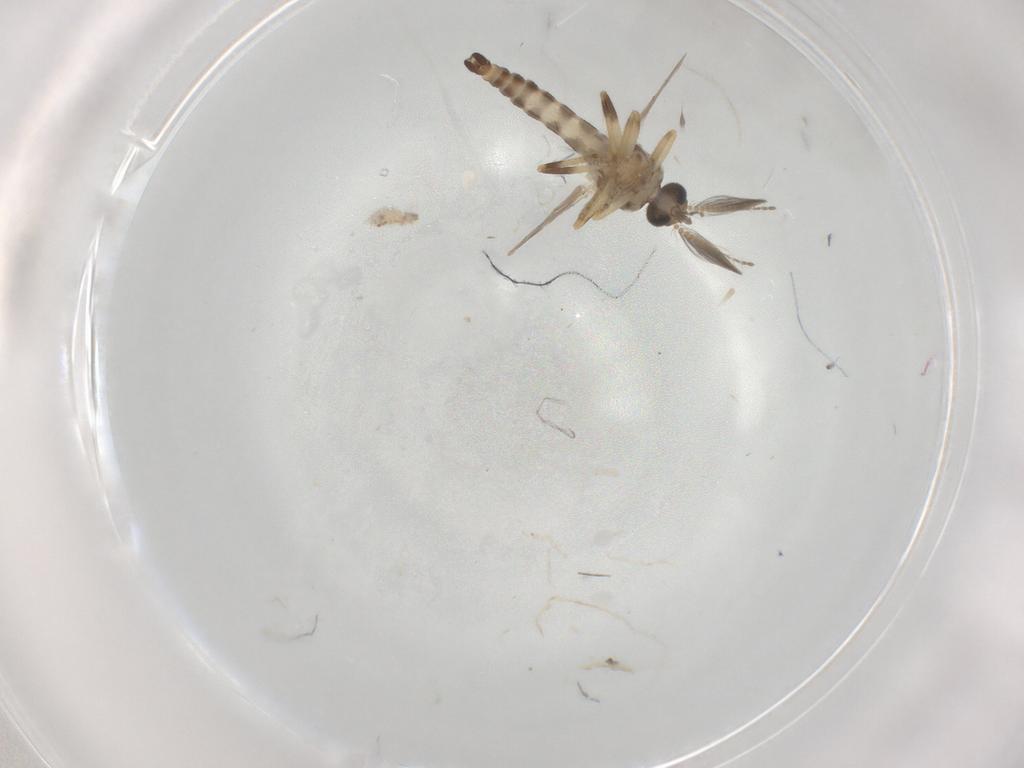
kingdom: Animalia
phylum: Arthropoda
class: Insecta
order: Diptera
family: Ceratopogonidae
